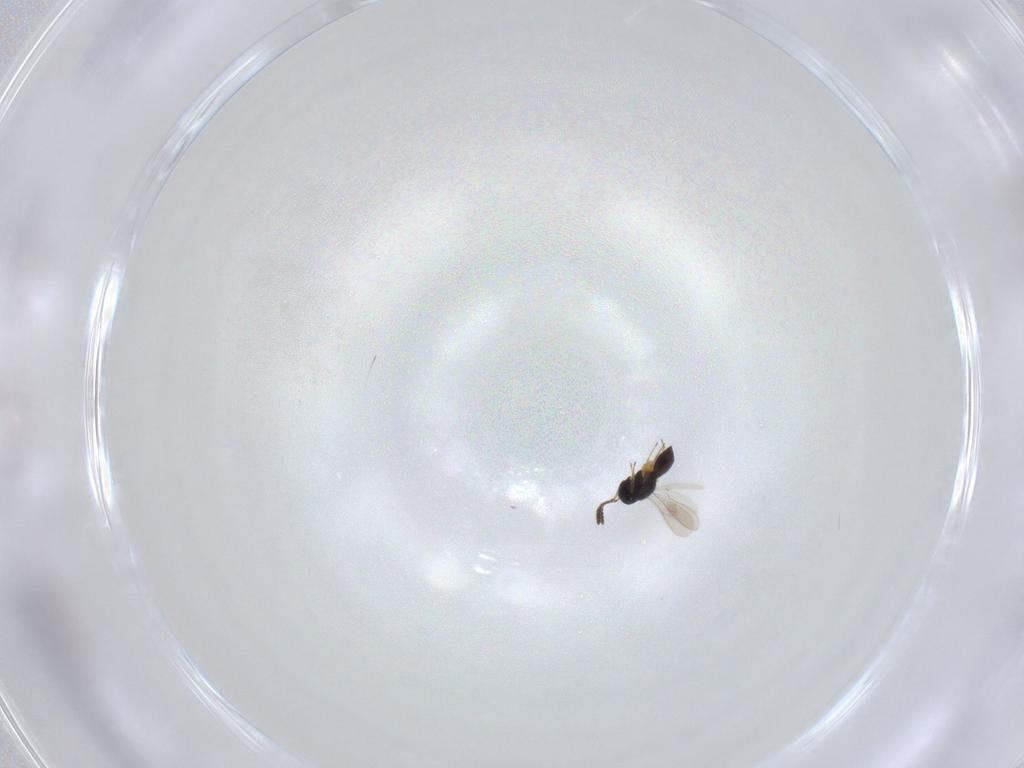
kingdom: Animalia
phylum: Arthropoda
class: Insecta
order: Hymenoptera
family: Scelionidae
